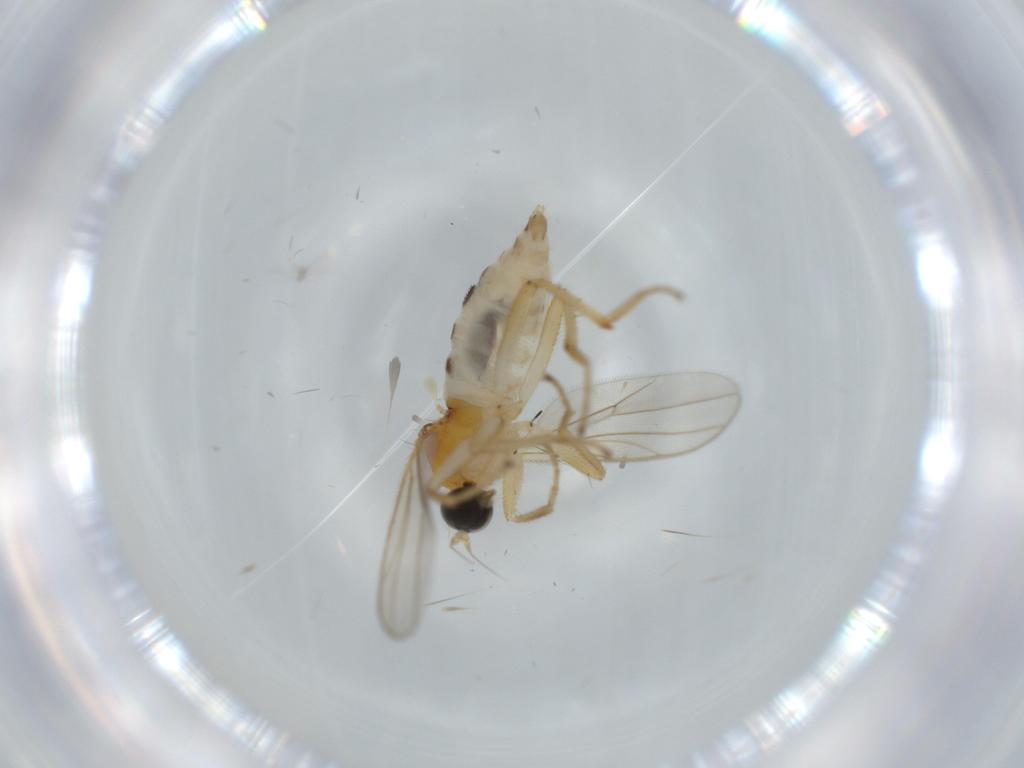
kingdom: Animalia
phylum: Arthropoda
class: Insecta
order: Diptera
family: Hybotidae
